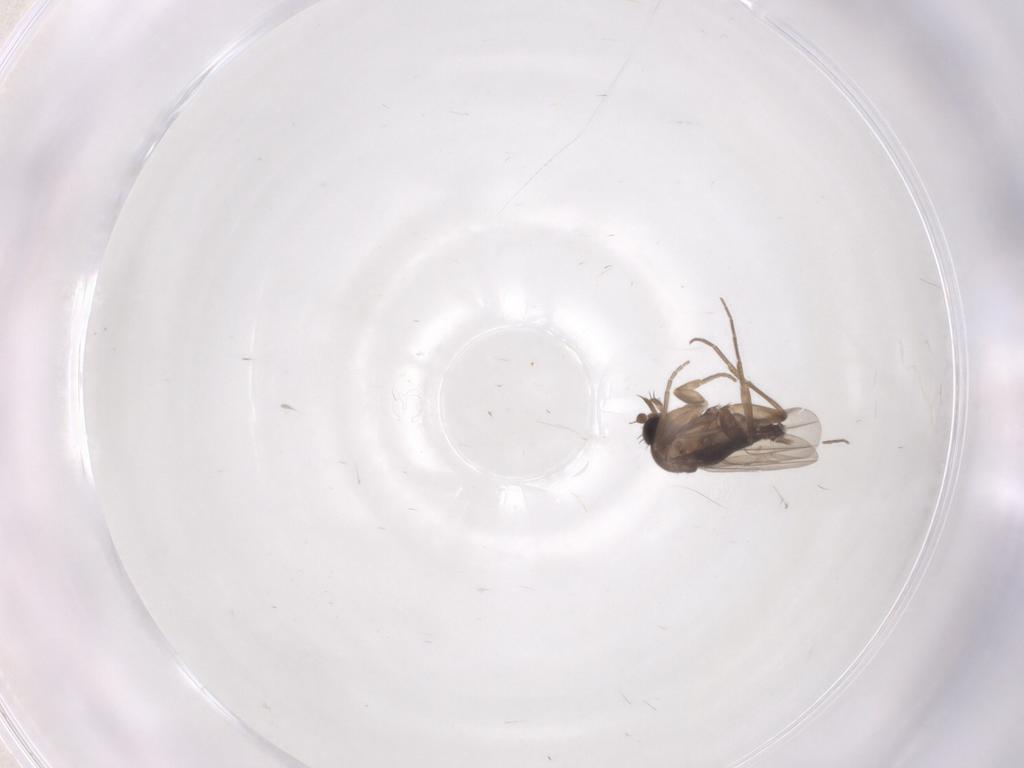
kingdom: Animalia
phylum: Arthropoda
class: Insecta
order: Diptera
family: Phoridae
